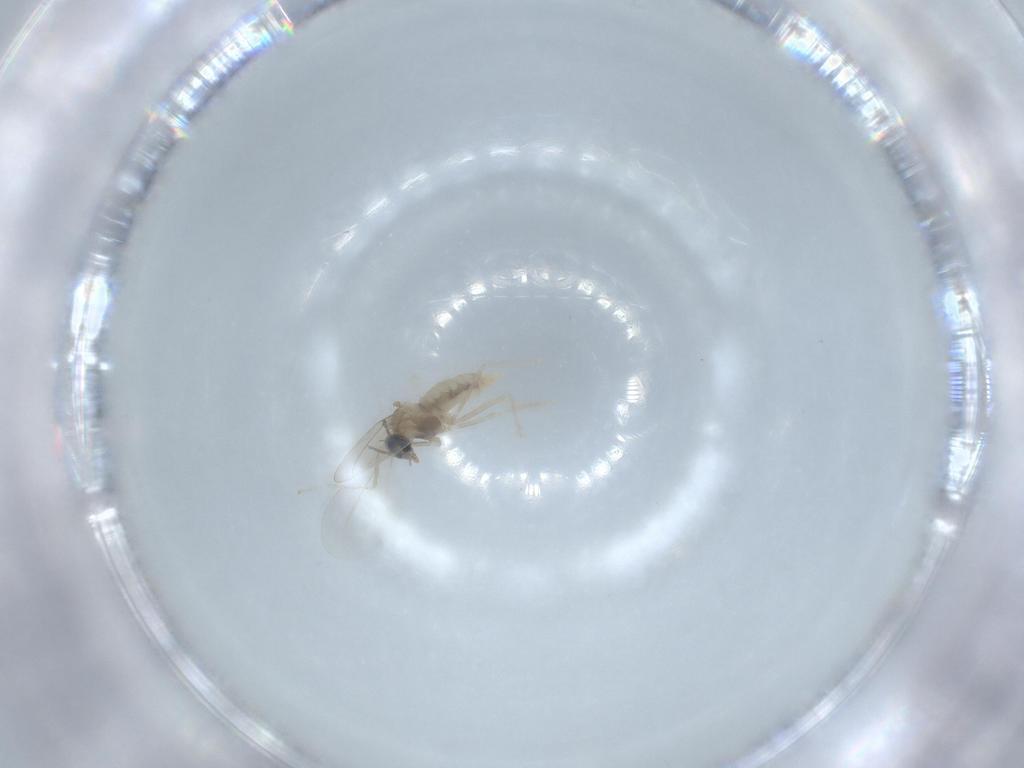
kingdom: Animalia
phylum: Arthropoda
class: Insecta
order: Diptera
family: Cecidomyiidae
